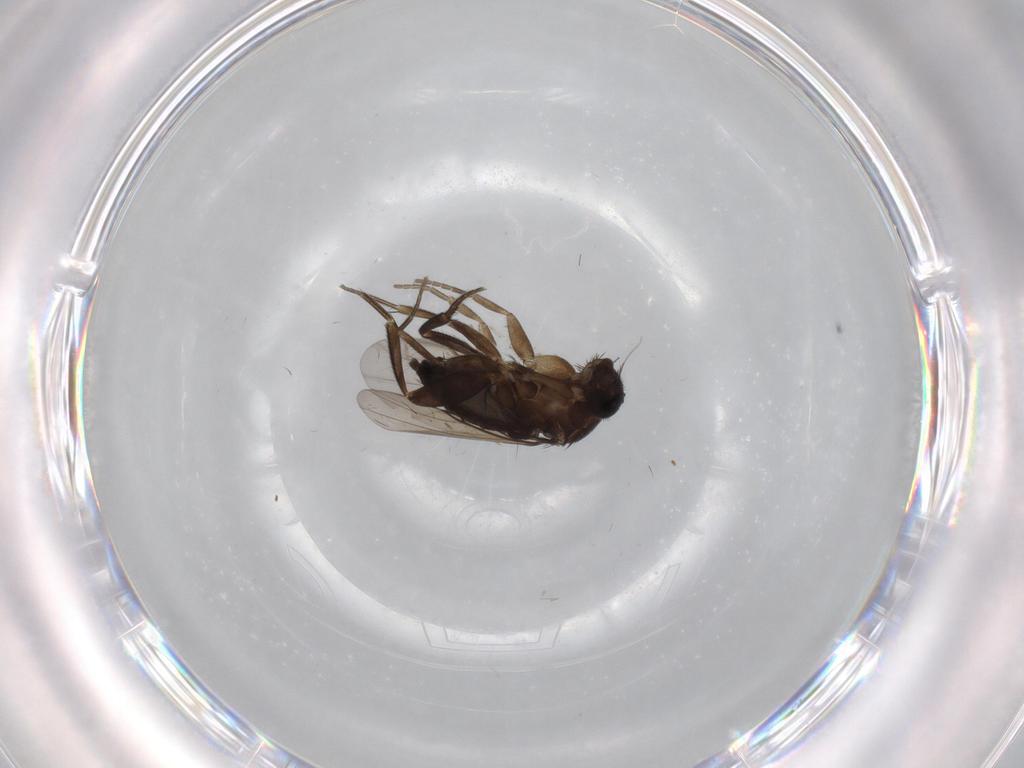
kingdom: Animalia
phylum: Arthropoda
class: Insecta
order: Diptera
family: Phoridae
